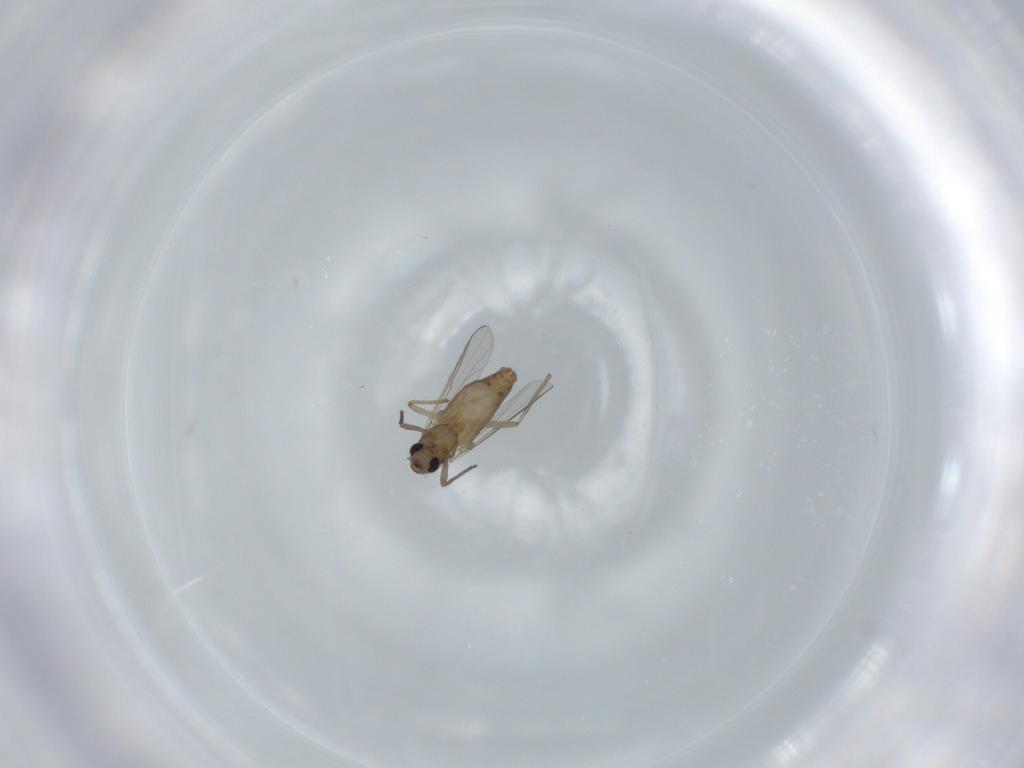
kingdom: Animalia
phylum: Arthropoda
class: Insecta
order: Diptera
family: Chironomidae
